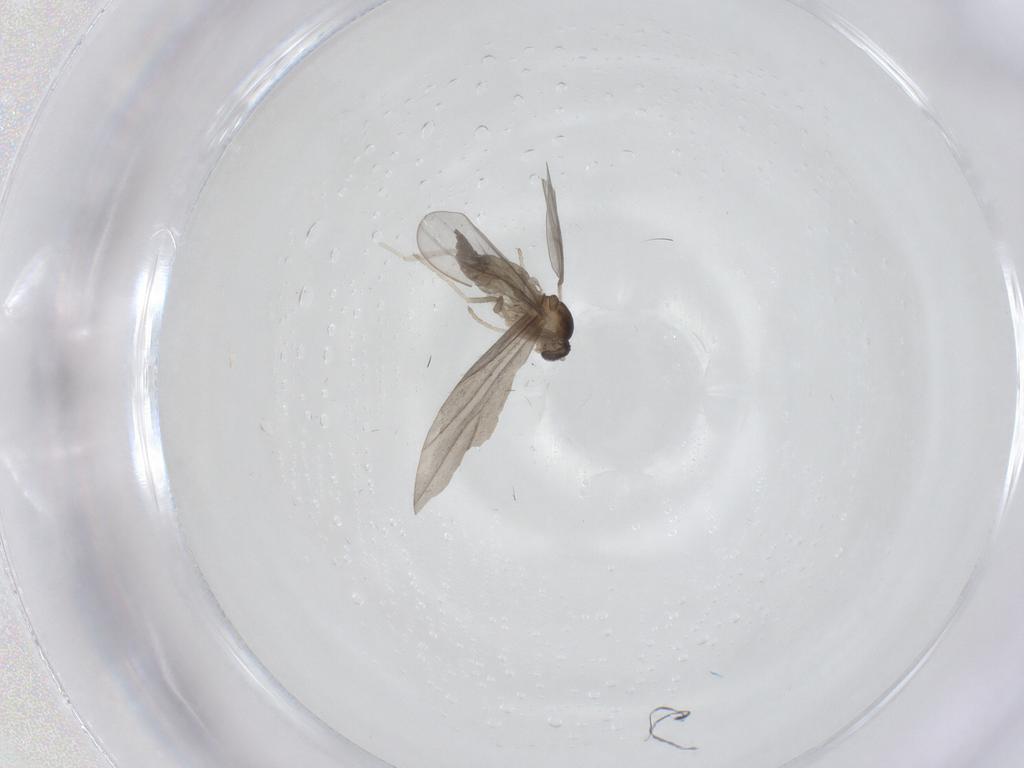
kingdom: Animalia
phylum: Arthropoda
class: Insecta
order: Diptera
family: Cecidomyiidae
